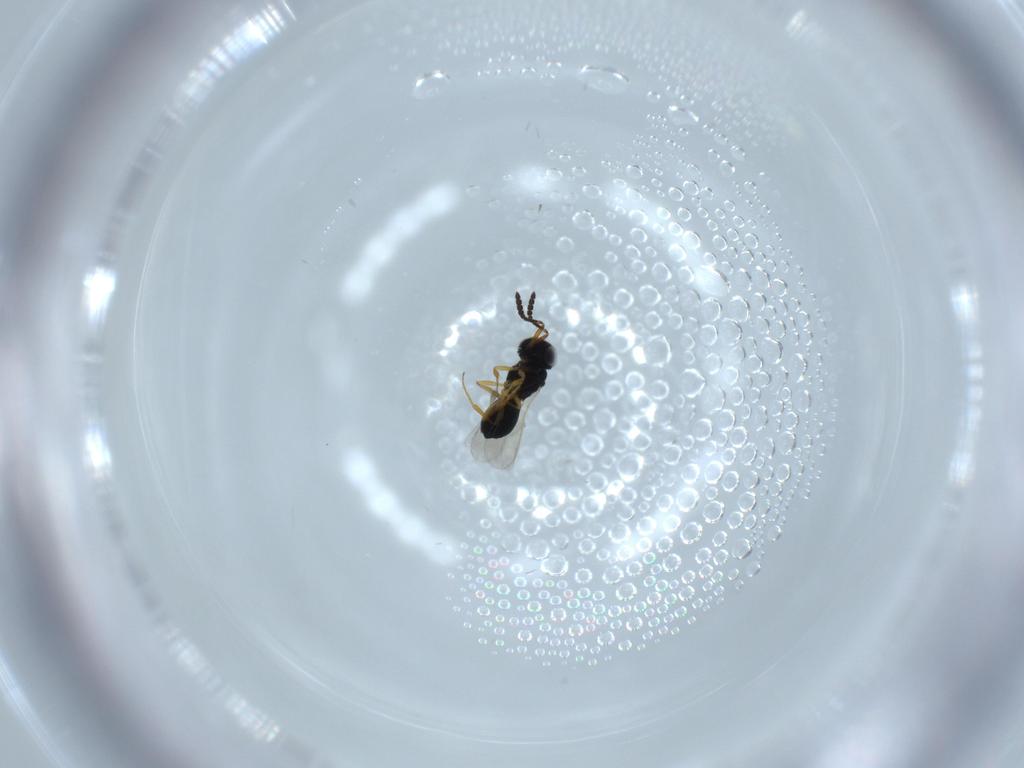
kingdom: Animalia
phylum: Arthropoda
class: Insecta
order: Hymenoptera
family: Scelionidae
